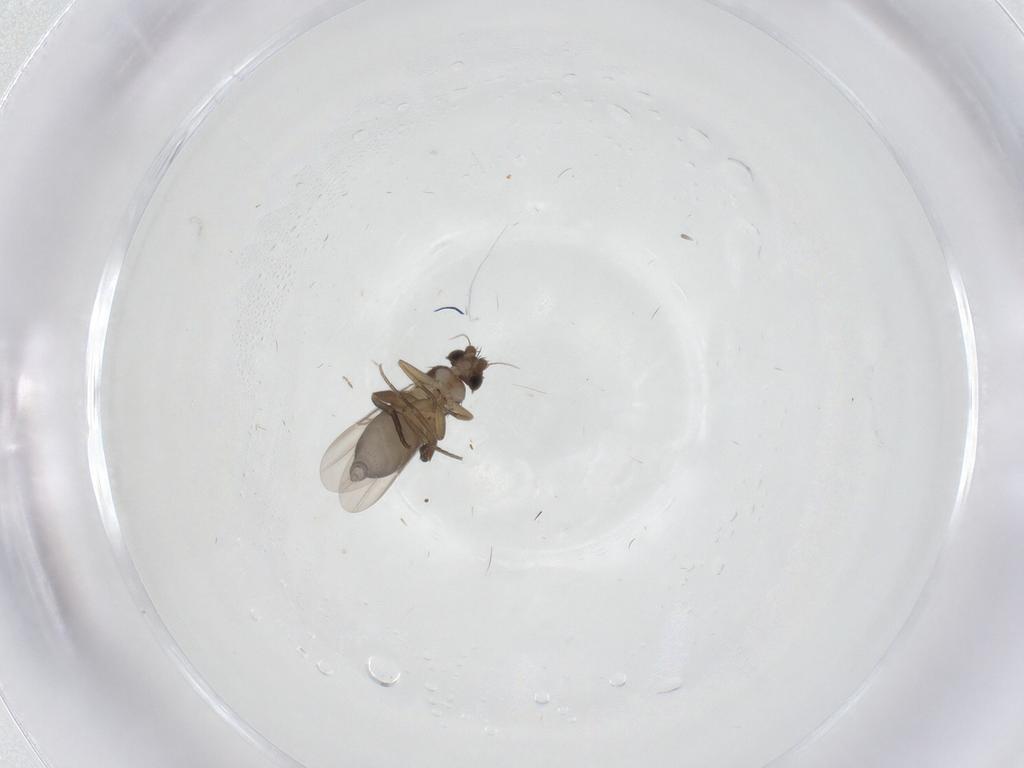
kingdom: Animalia
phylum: Arthropoda
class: Insecta
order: Diptera
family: Phoridae
